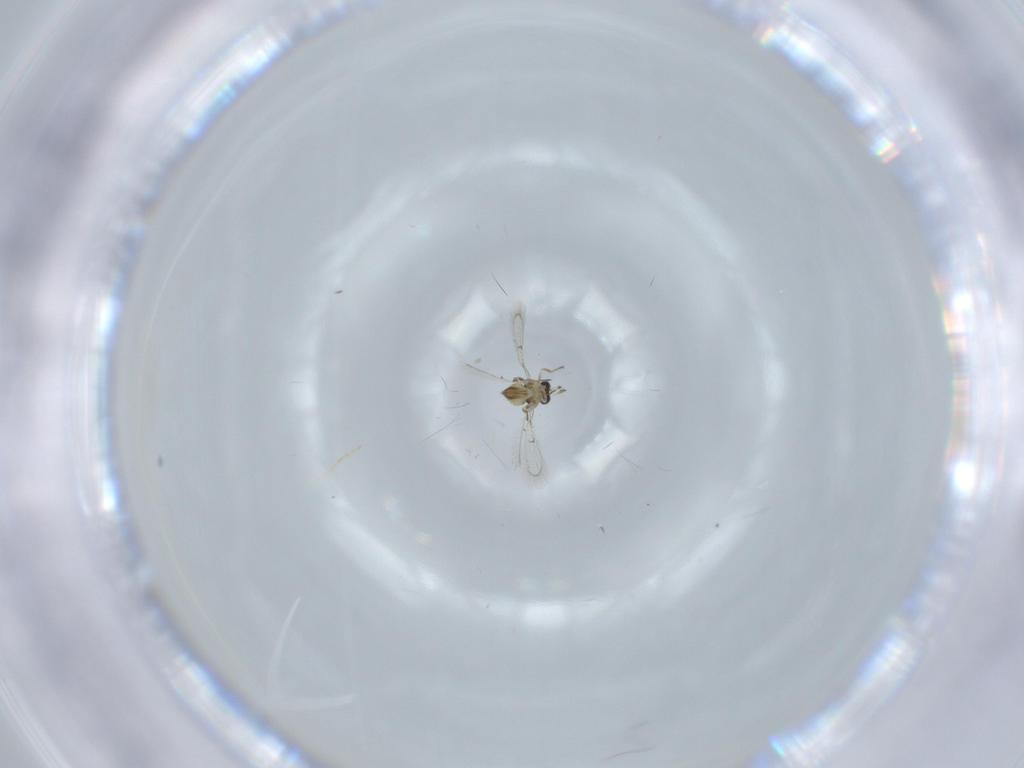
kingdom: Animalia
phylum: Arthropoda
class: Insecta
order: Hymenoptera
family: Trichogrammatidae
